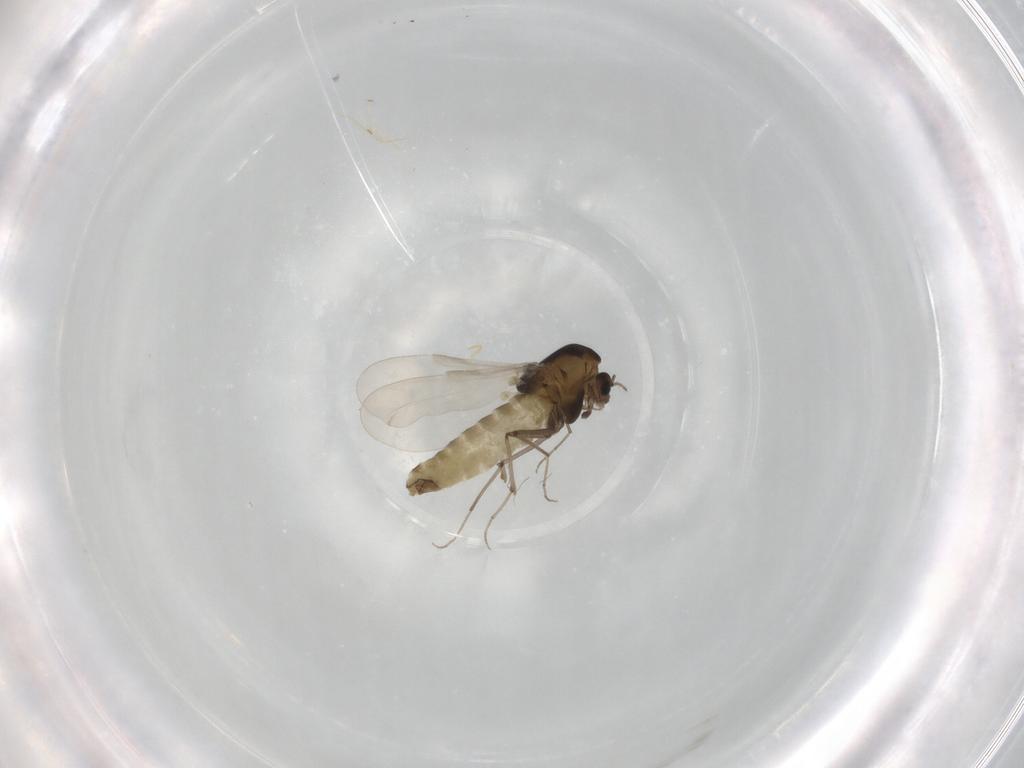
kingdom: Animalia
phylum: Arthropoda
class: Insecta
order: Diptera
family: Chironomidae
